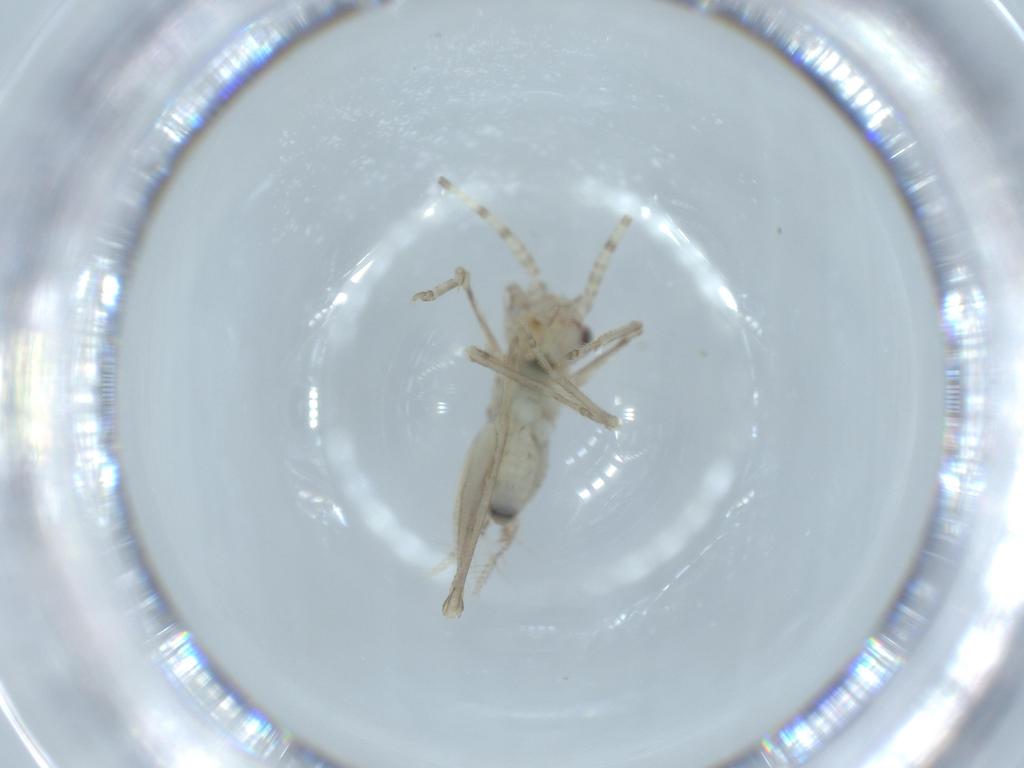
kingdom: Animalia
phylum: Arthropoda
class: Insecta
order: Orthoptera
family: Trigonidiidae
